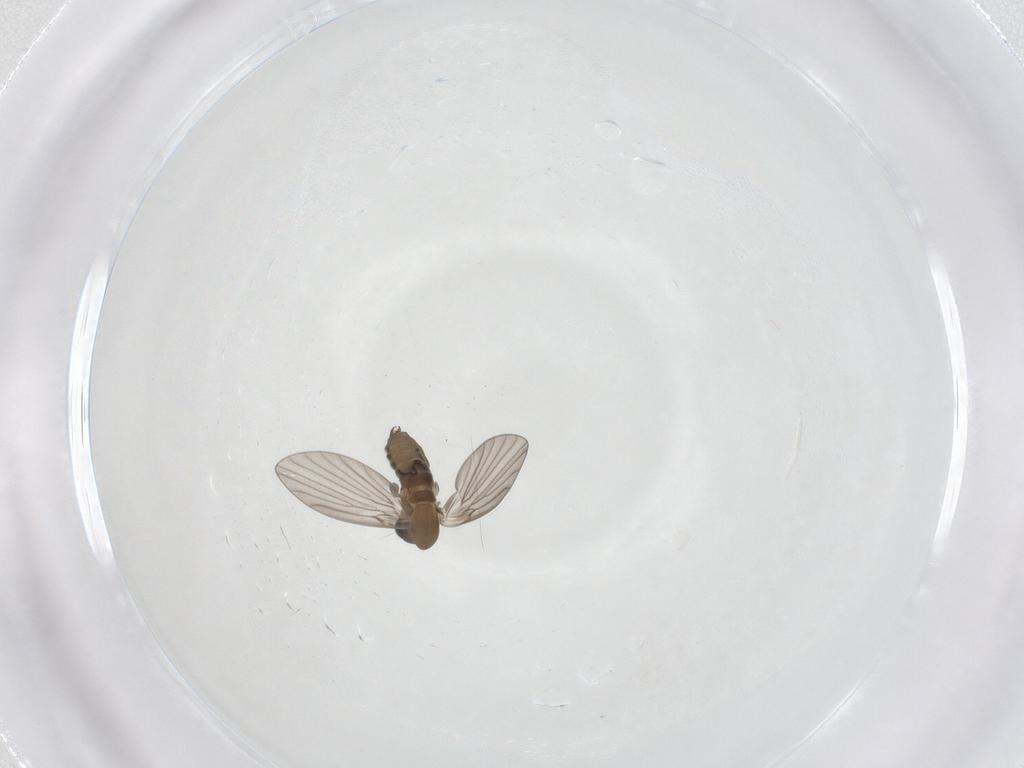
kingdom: Animalia
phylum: Arthropoda
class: Insecta
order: Diptera
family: Psychodidae
